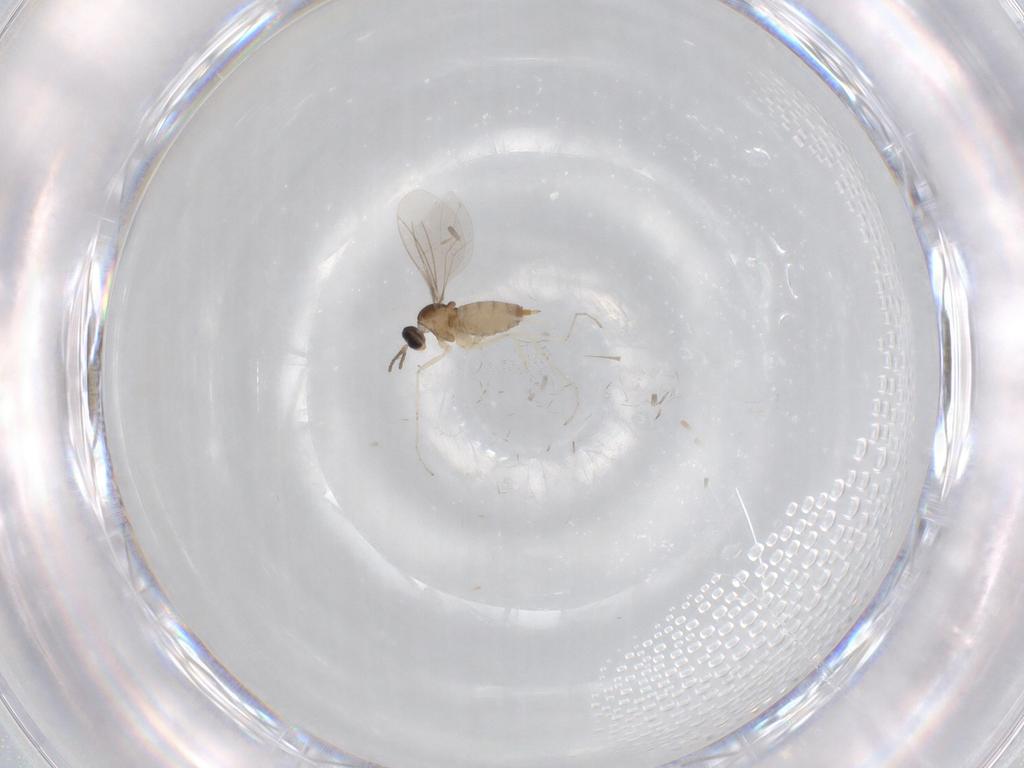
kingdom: Animalia
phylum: Arthropoda
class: Insecta
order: Diptera
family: Cecidomyiidae
